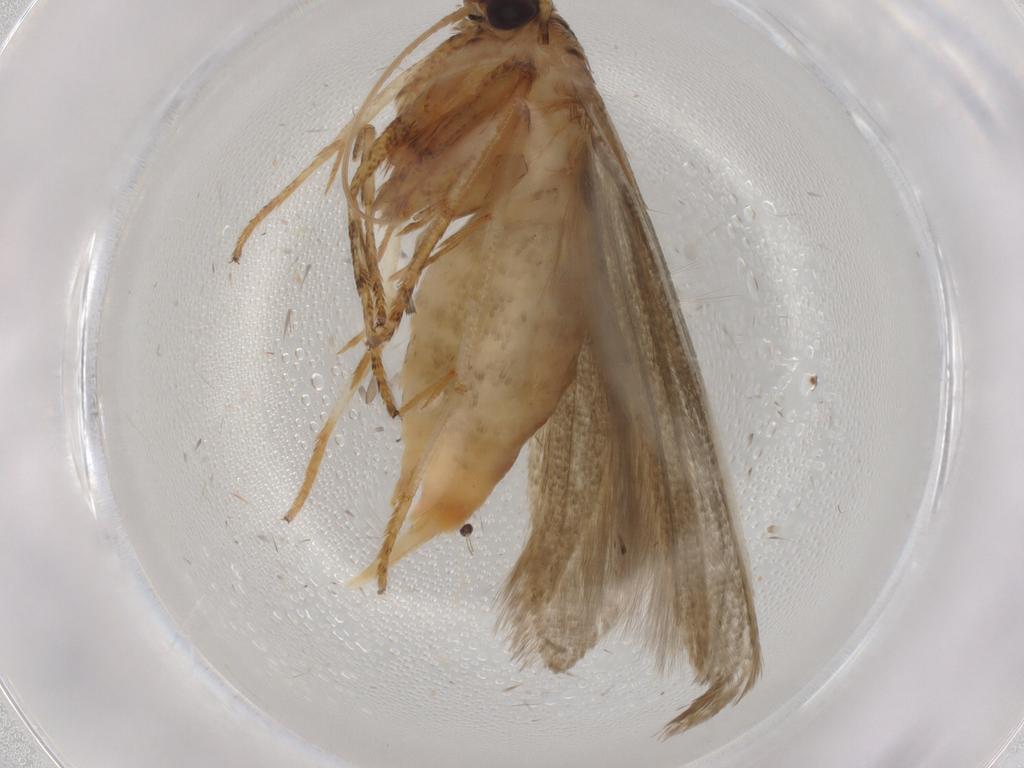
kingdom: Animalia
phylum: Arthropoda
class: Insecta
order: Lepidoptera
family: Blastobasidae
